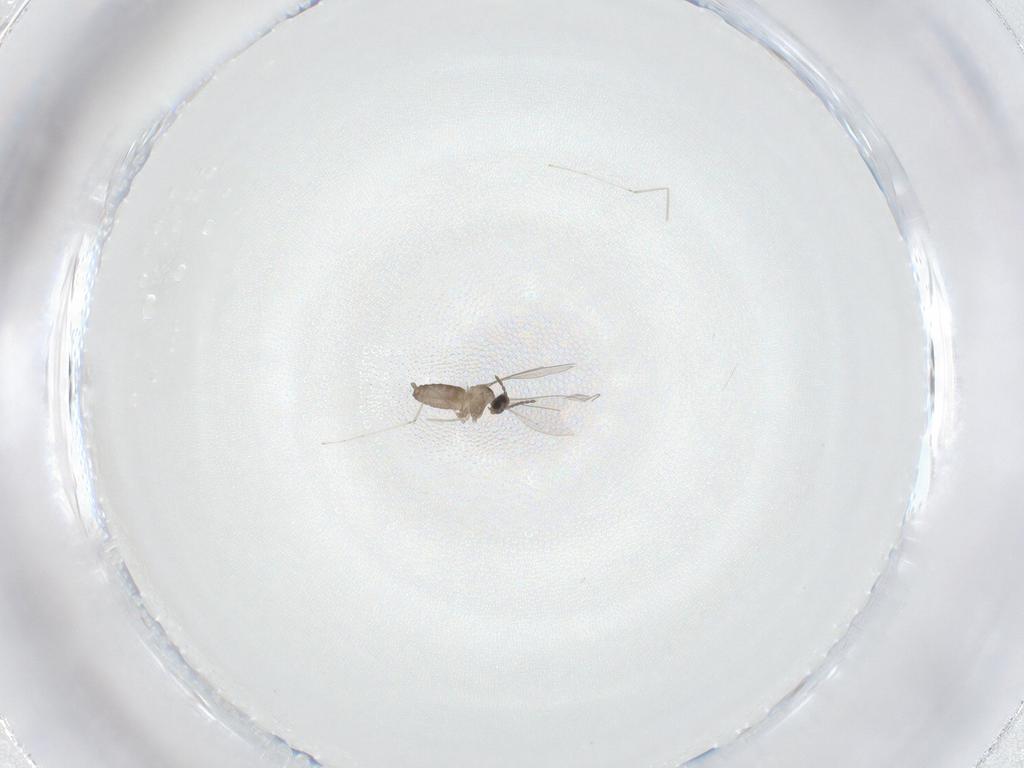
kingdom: Animalia
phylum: Arthropoda
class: Insecta
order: Diptera
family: Cecidomyiidae
